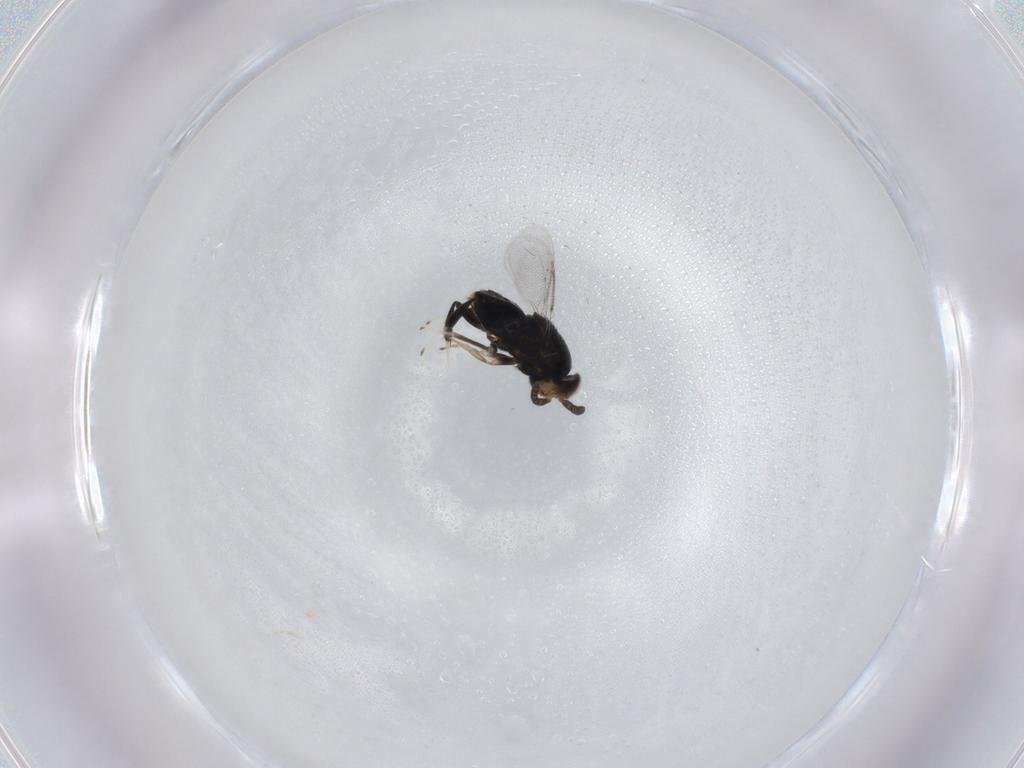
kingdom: Animalia
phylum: Arthropoda
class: Insecta
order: Hymenoptera
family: Aphelinidae
